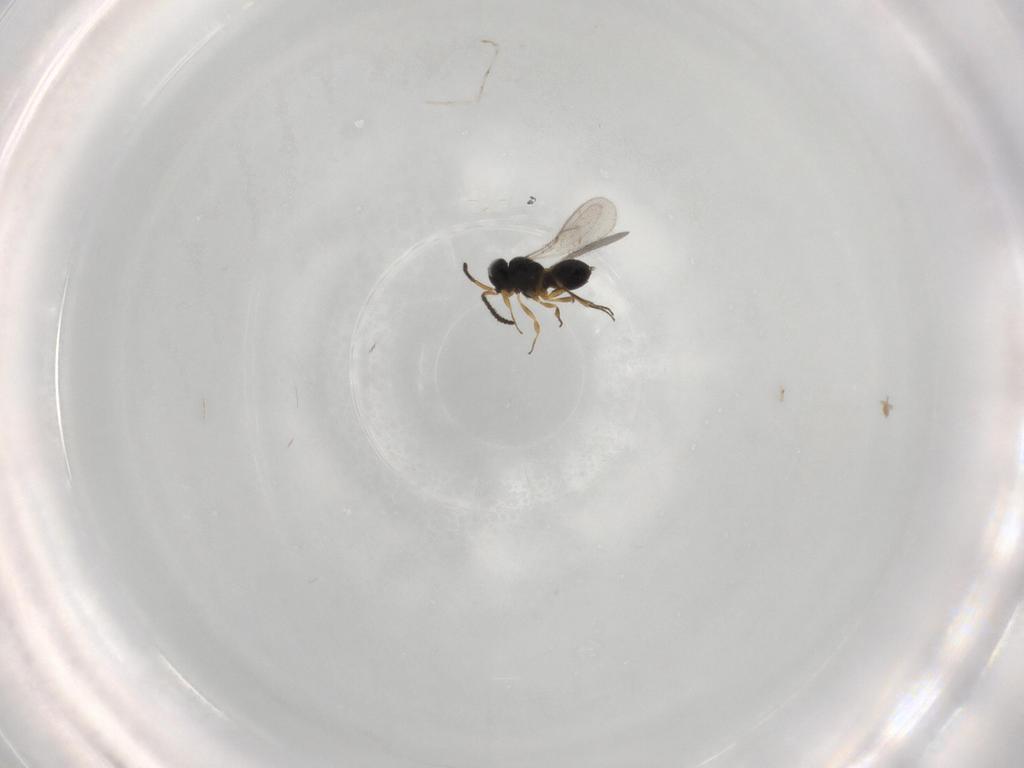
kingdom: Animalia
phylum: Arthropoda
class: Insecta
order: Hymenoptera
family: Scelionidae
